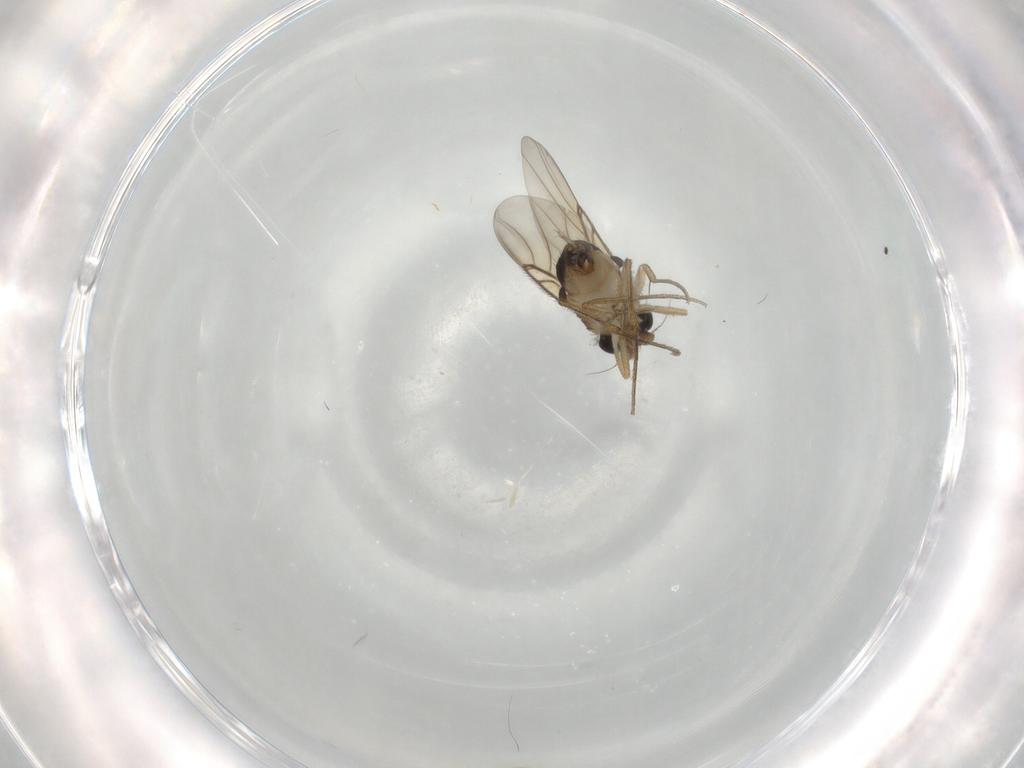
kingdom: Animalia
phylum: Arthropoda
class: Insecta
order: Diptera
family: Sciaridae
